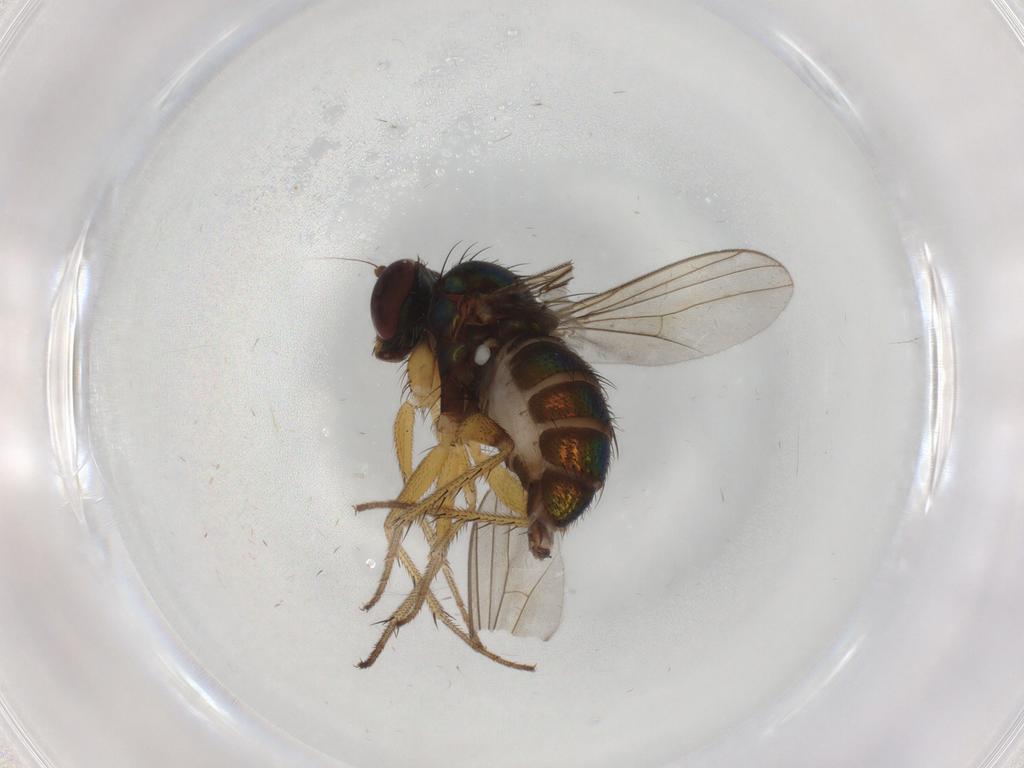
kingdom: Animalia
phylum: Arthropoda
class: Insecta
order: Diptera
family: Dolichopodidae
